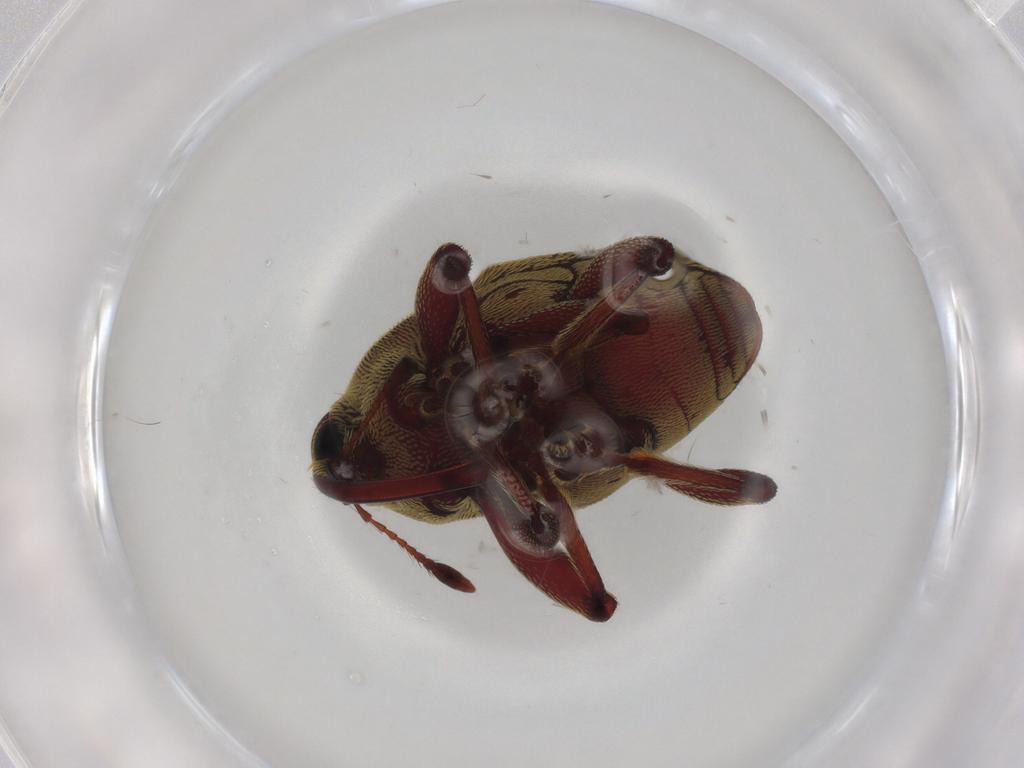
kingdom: Animalia
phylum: Arthropoda
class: Insecta
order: Coleoptera
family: Curculionidae
